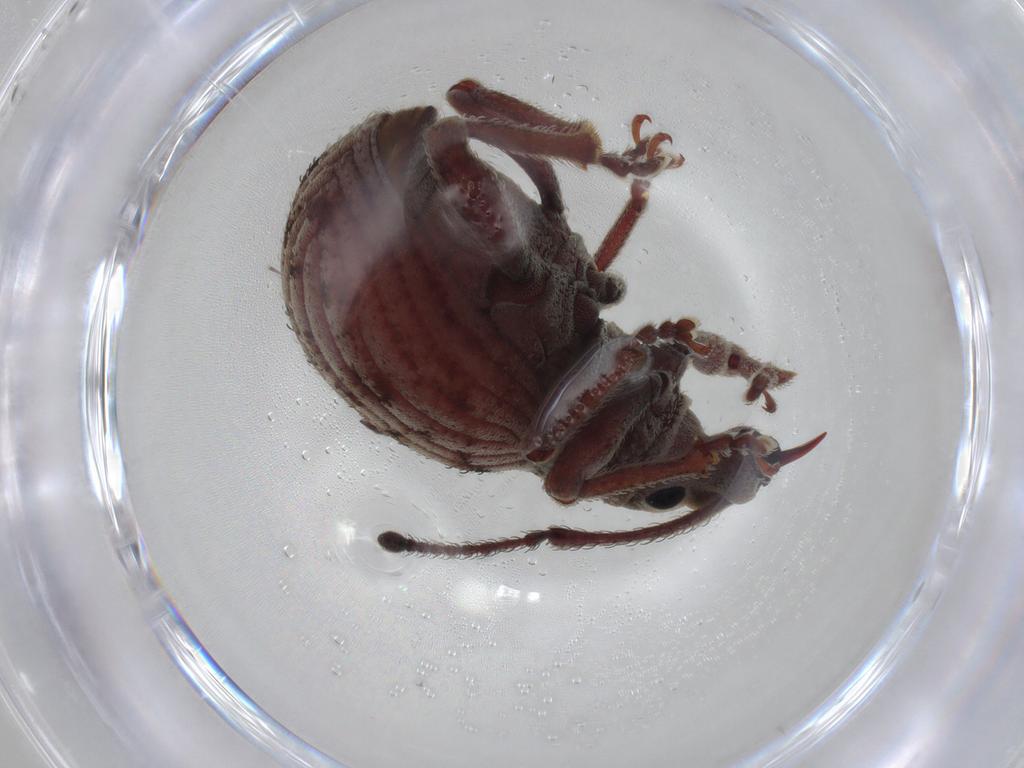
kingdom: Animalia
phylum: Arthropoda
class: Insecta
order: Coleoptera
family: Curculionidae
